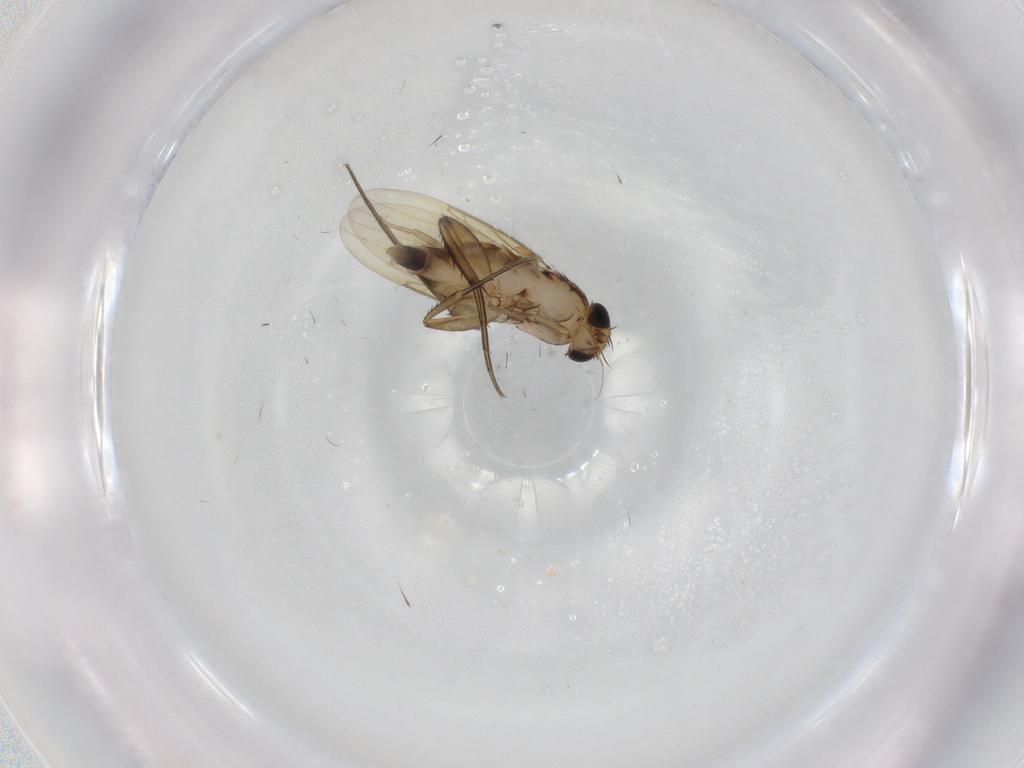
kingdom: Animalia
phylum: Arthropoda
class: Insecta
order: Diptera
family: Phoridae
